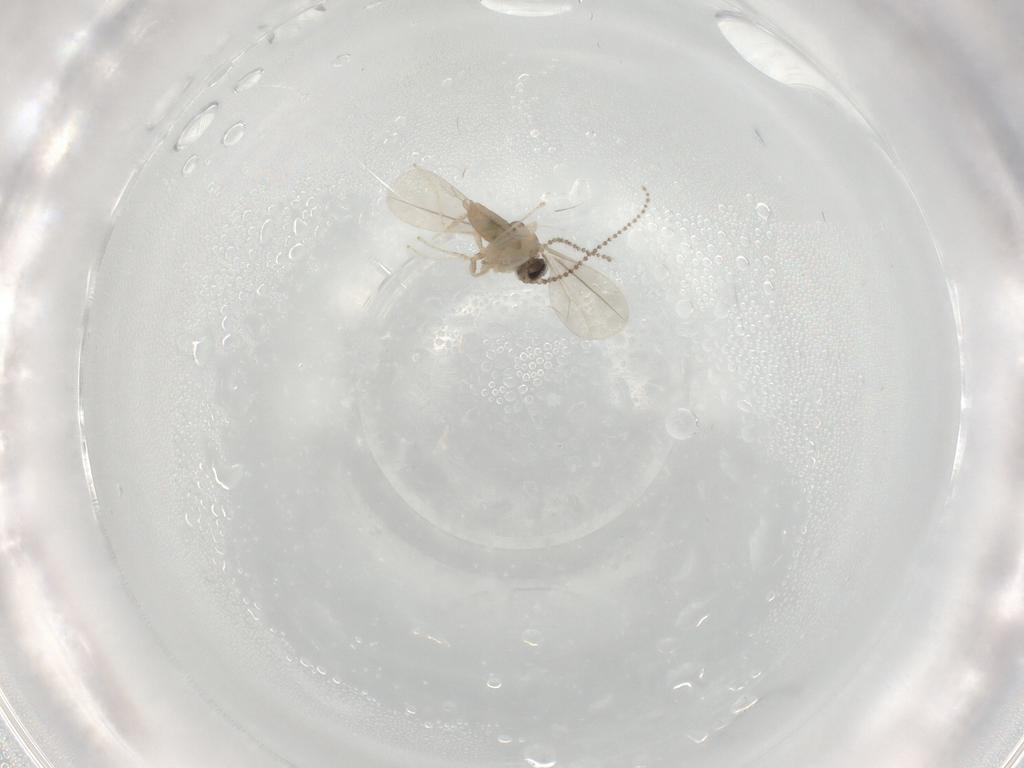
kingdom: Animalia
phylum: Arthropoda
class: Insecta
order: Diptera
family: Cecidomyiidae
